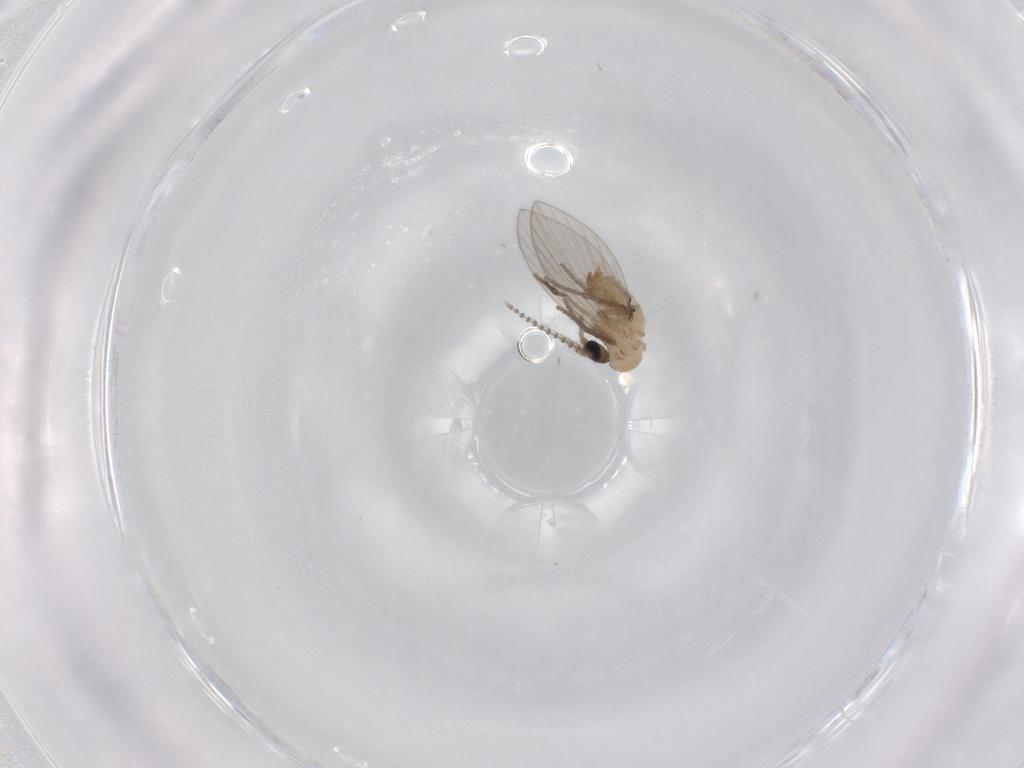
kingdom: Animalia
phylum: Arthropoda
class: Insecta
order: Diptera
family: Psychodidae
